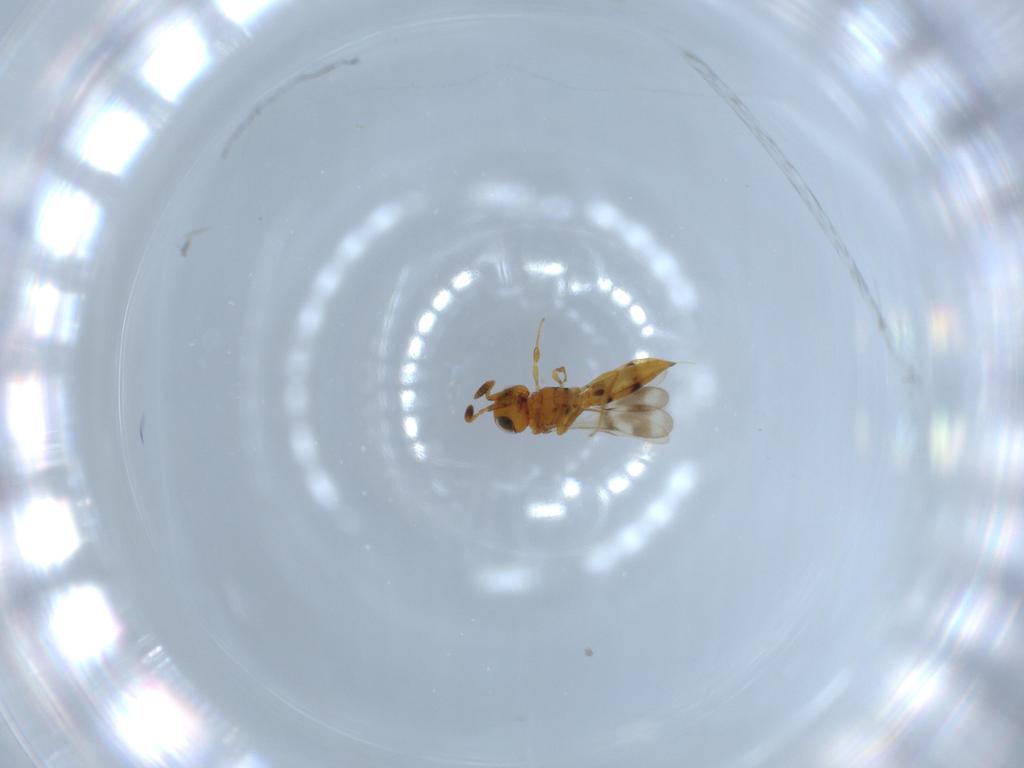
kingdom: Animalia
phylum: Arthropoda
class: Insecta
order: Hymenoptera
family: Scelionidae
